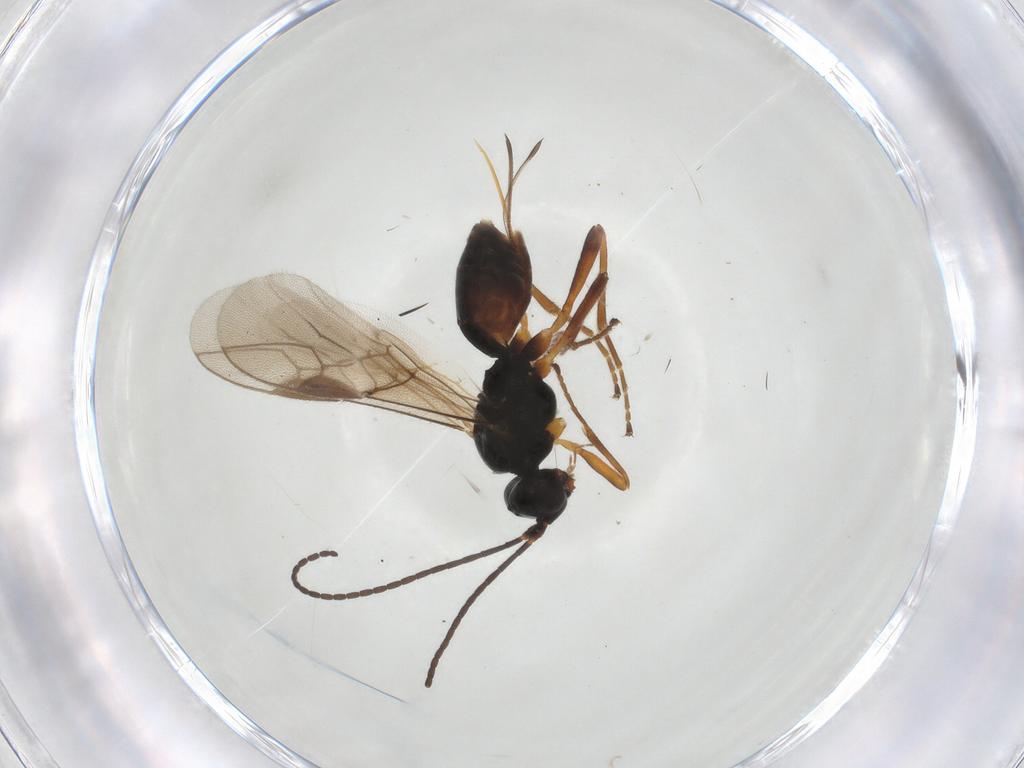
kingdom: Animalia
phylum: Arthropoda
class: Insecta
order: Hymenoptera
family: Braconidae
